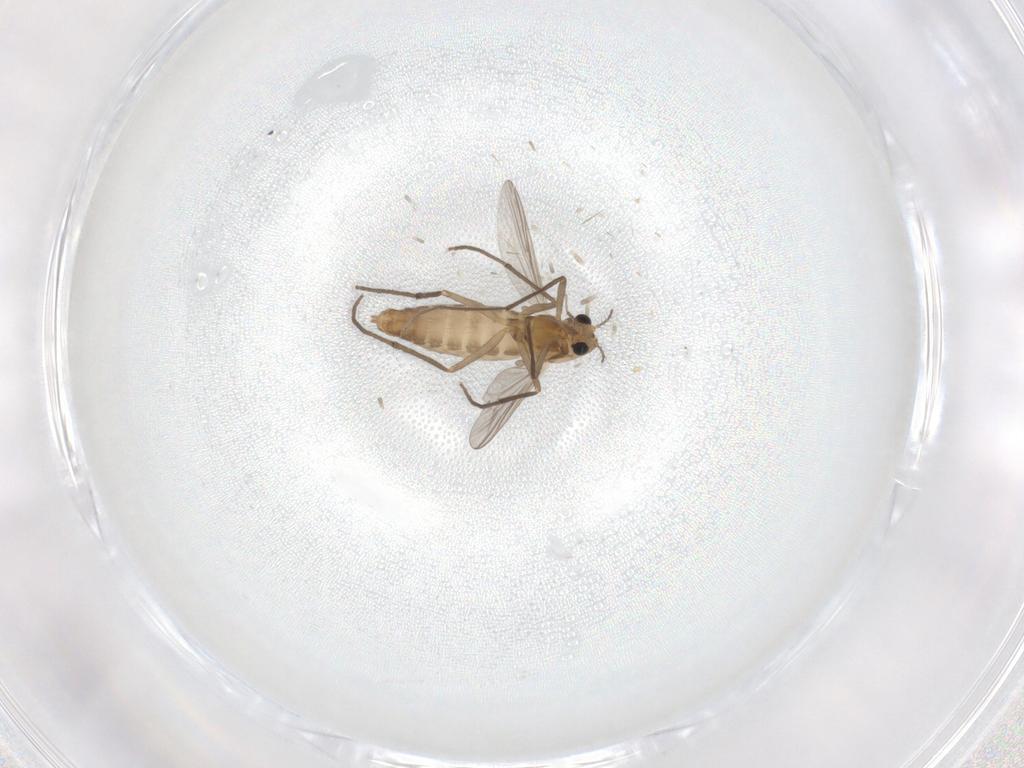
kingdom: Animalia
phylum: Arthropoda
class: Insecta
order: Diptera
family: Chironomidae
